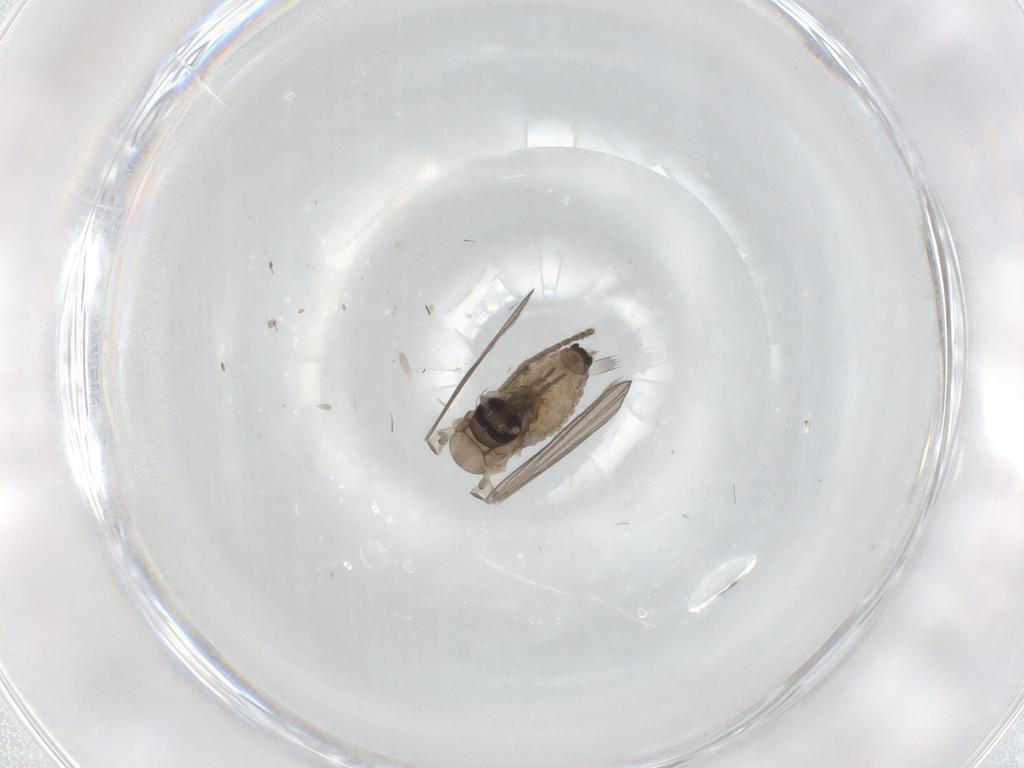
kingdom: Animalia
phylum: Arthropoda
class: Insecta
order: Diptera
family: Psychodidae
